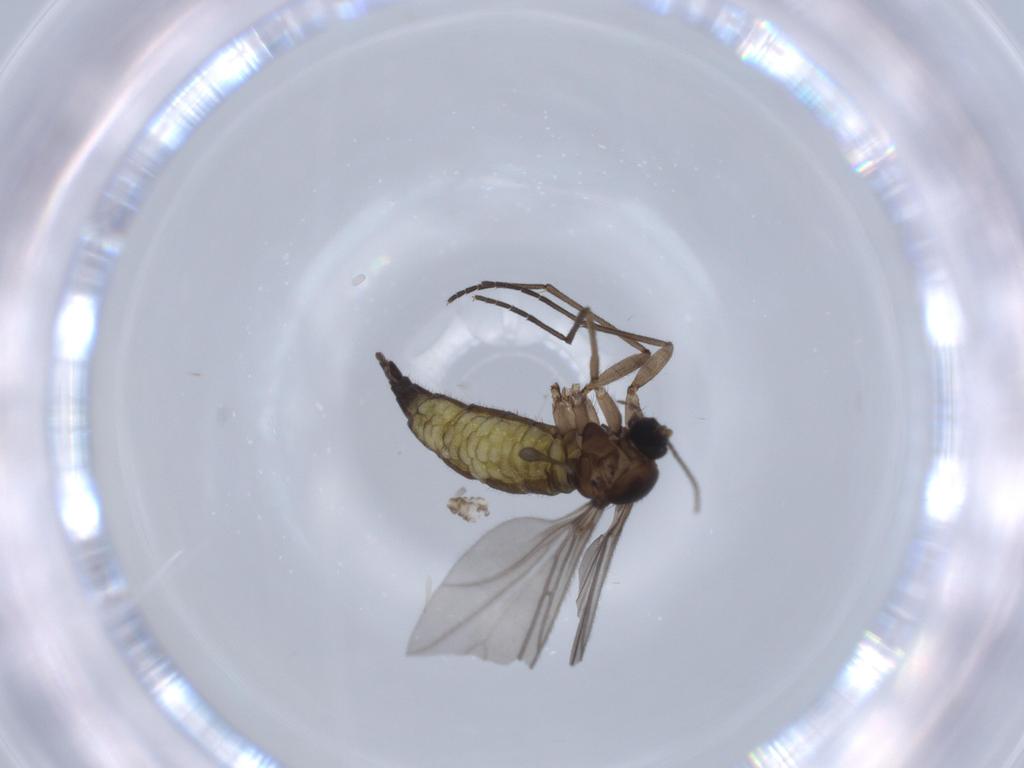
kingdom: Animalia
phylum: Arthropoda
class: Insecta
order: Diptera
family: Sciaridae
